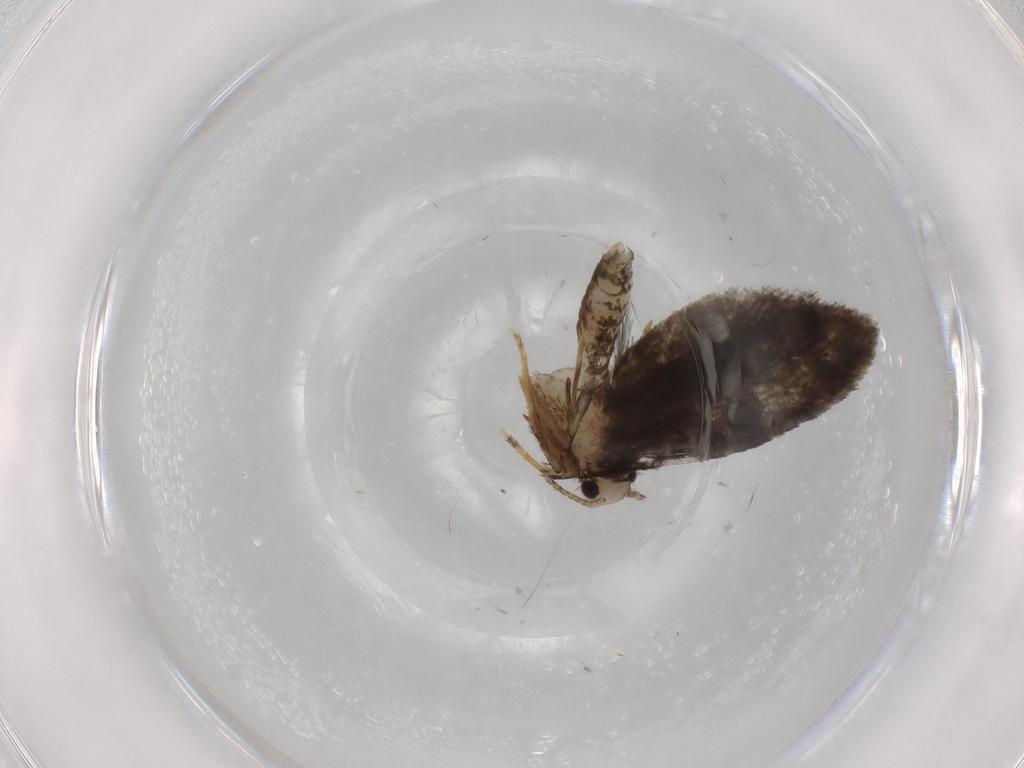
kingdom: Animalia
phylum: Arthropoda
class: Insecta
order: Lepidoptera
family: Psychidae
